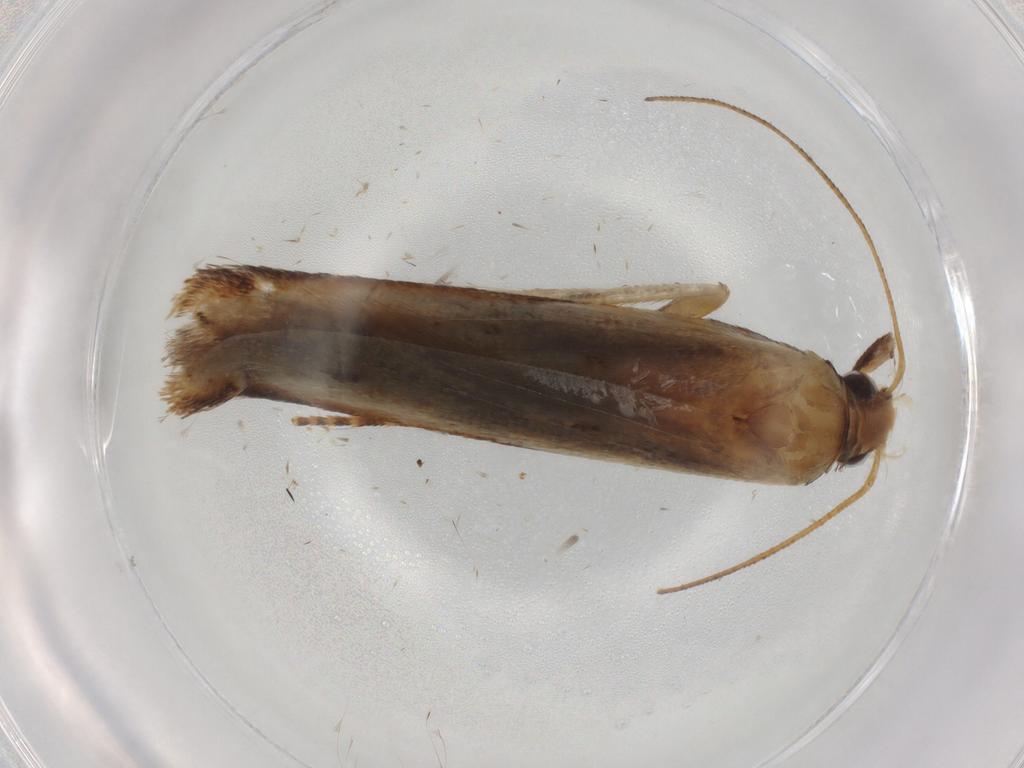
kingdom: Animalia
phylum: Arthropoda
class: Insecta
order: Lepidoptera
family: Gelechiidae
